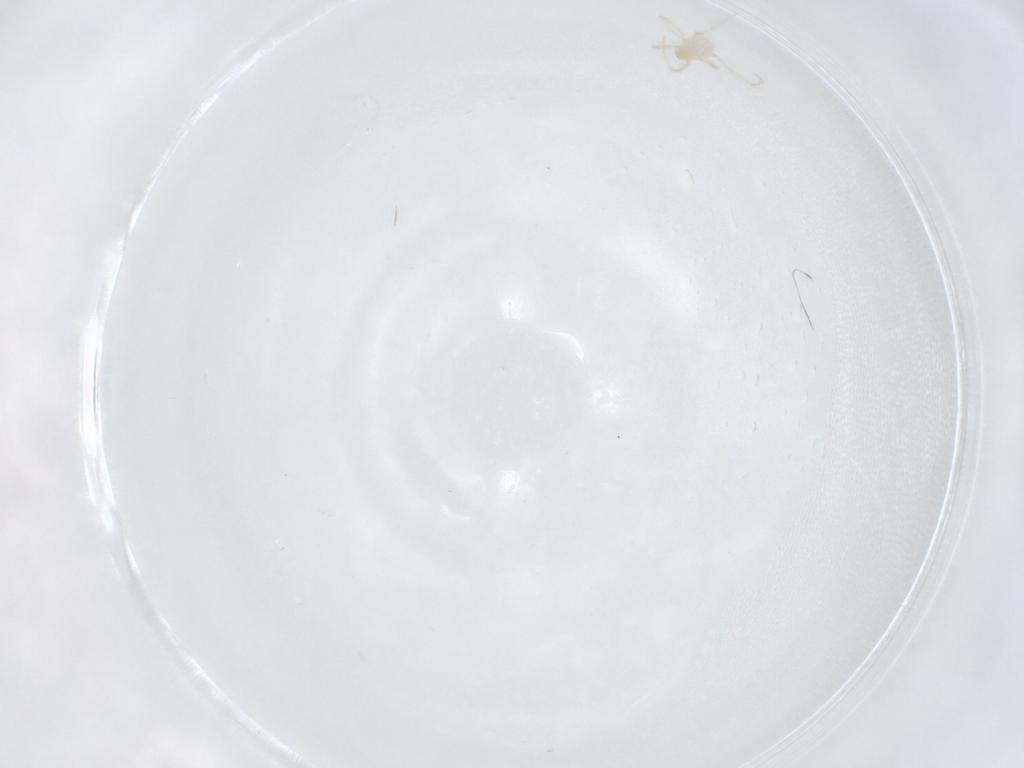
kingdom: Animalia
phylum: Arthropoda
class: Arachnida
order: Trombidiformes
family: Erythraeidae
